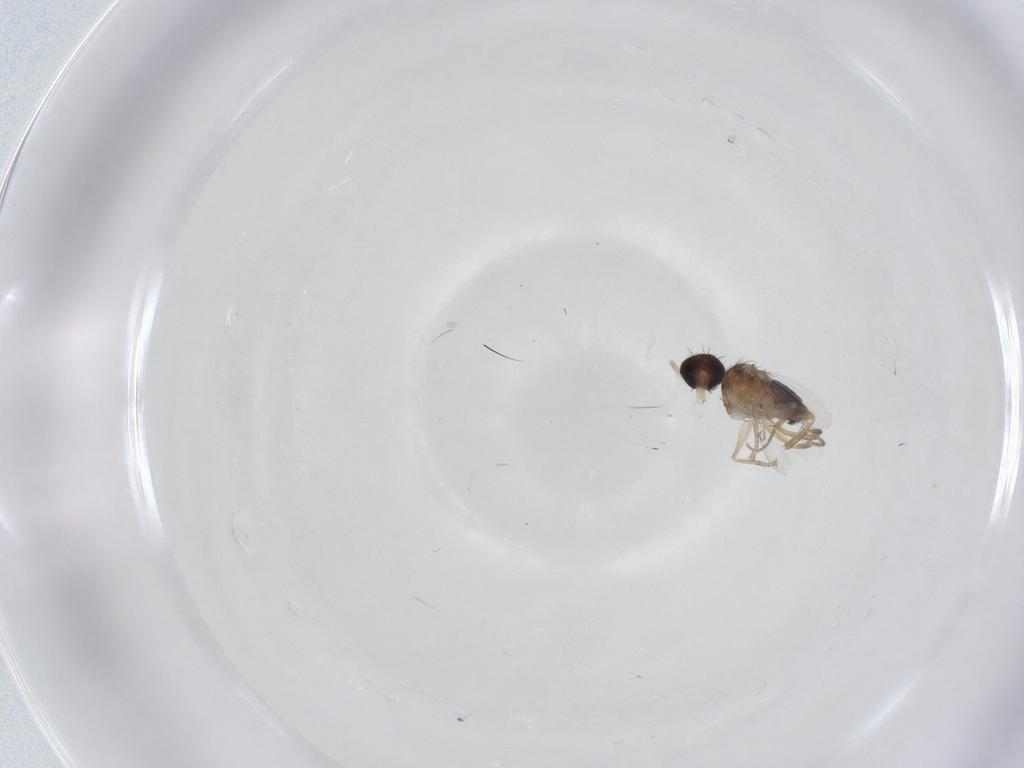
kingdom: Animalia
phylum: Arthropoda
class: Insecta
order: Diptera
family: Phoridae
